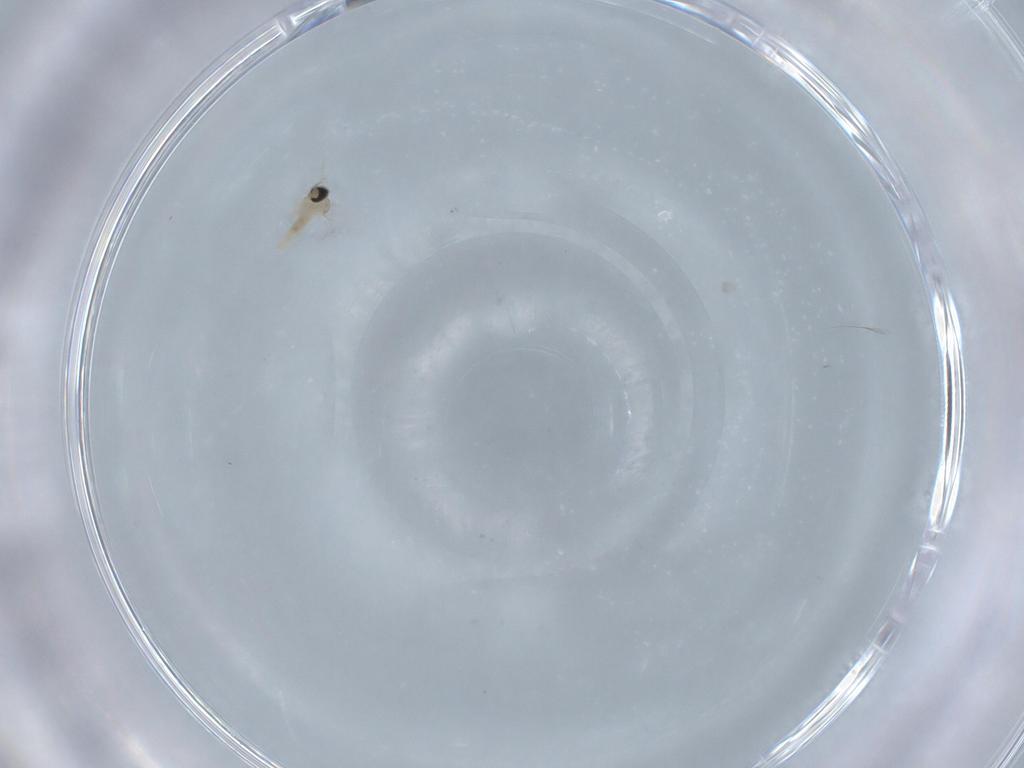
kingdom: Animalia
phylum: Arthropoda
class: Insecta
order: Diptera
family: Cecidomyiidae
